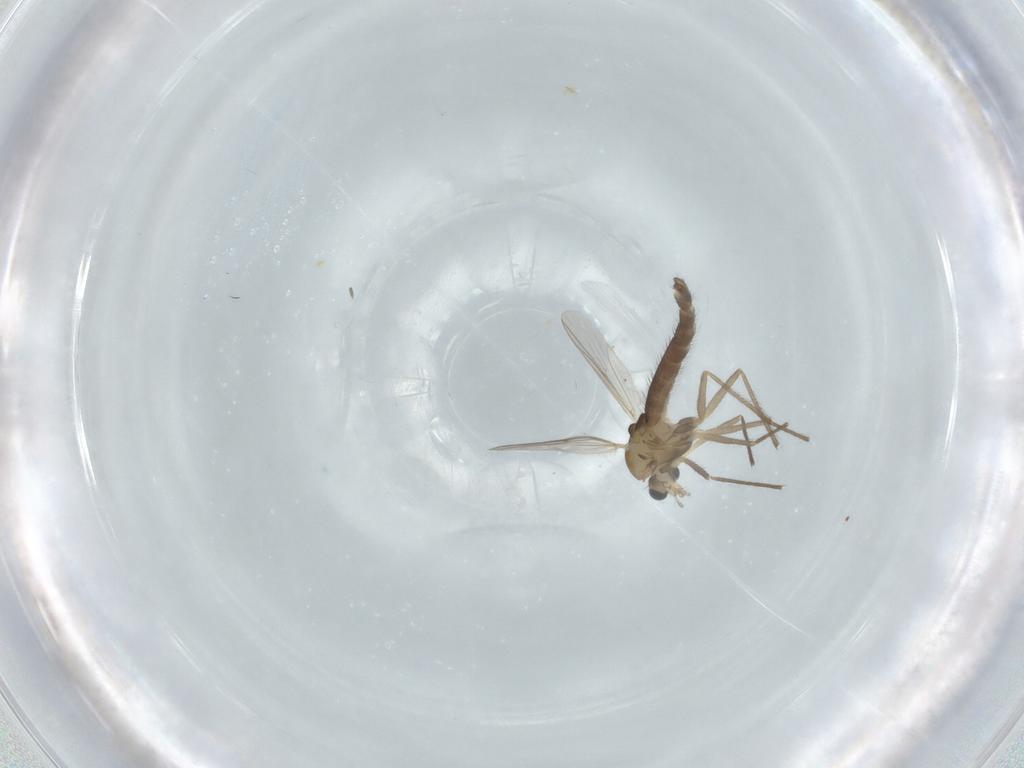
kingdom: Animalia
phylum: Arthropoda
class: Insecta
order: Diptera
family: Chironomidae
